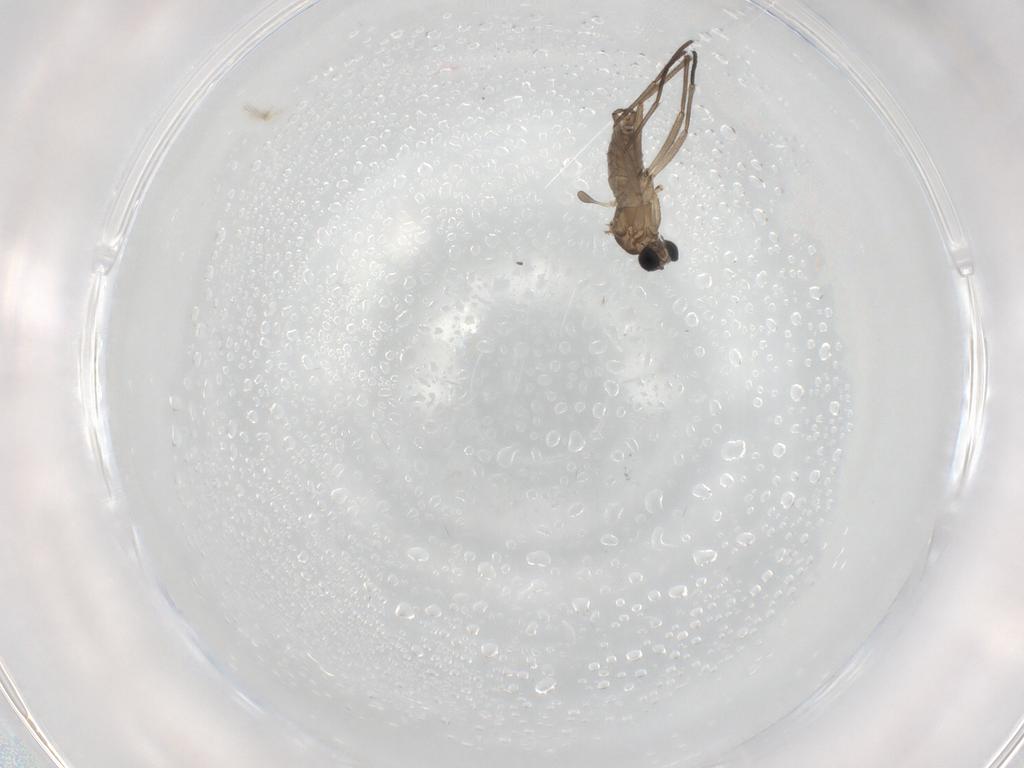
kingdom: Animalia
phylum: Arthropoda
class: Insecta
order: Diptera
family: Sciaridae
